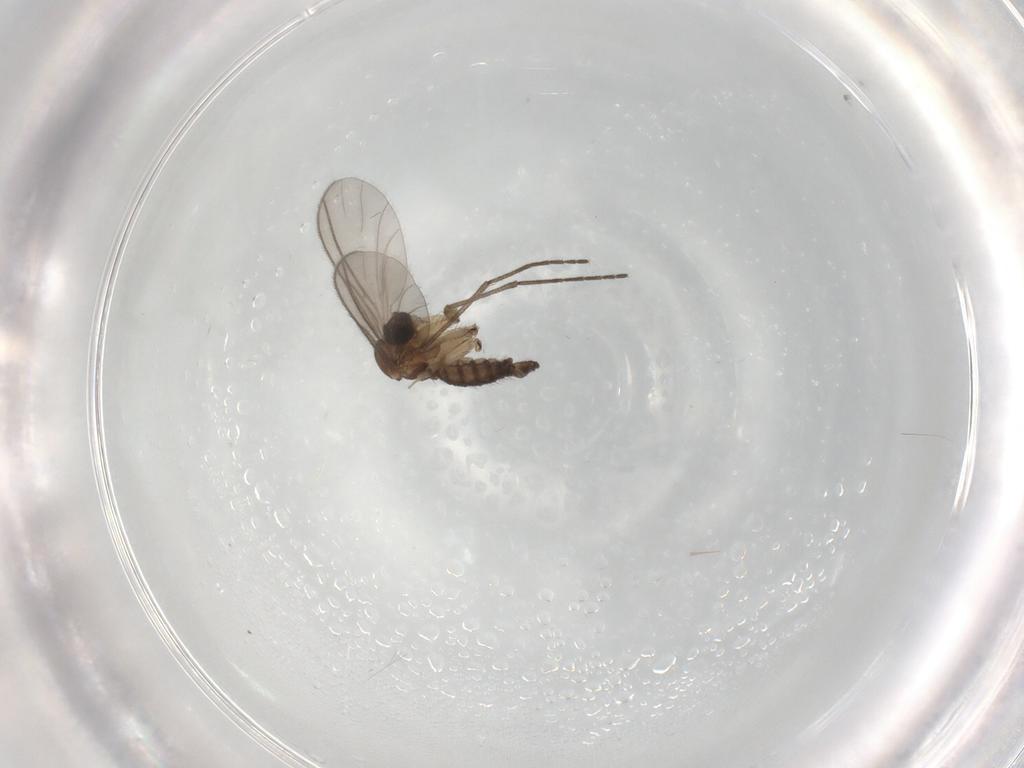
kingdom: Animalia
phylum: Arthropoda
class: Insecta
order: Diptera
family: Sciaridae
